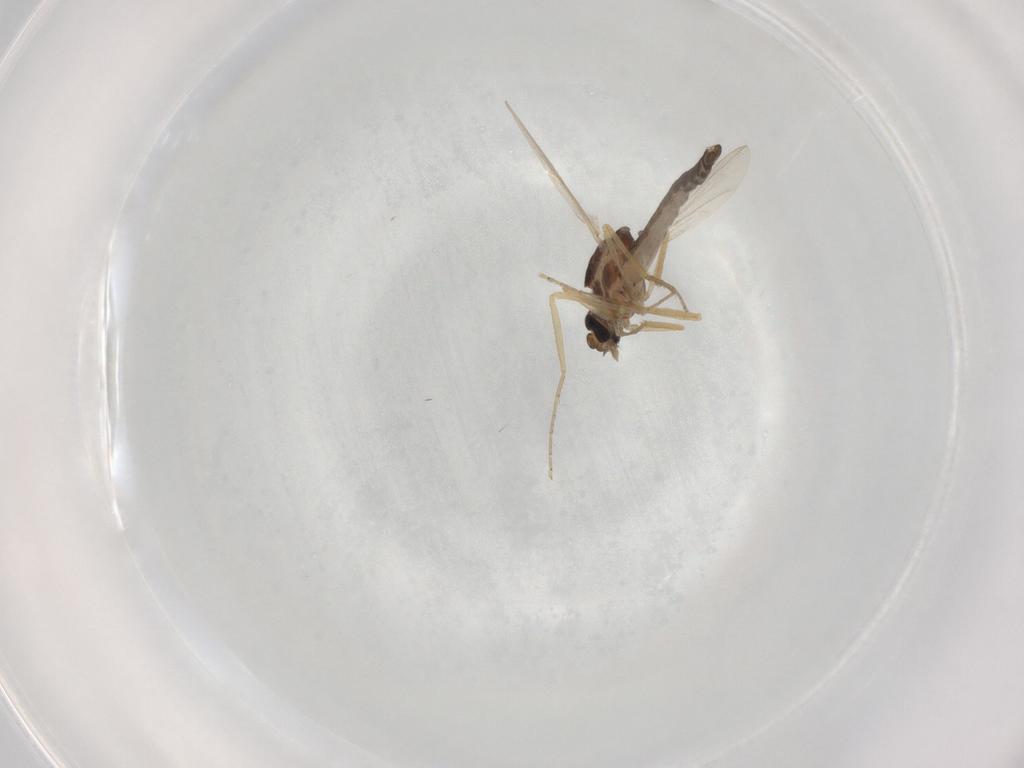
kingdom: Animalia
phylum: Arthropoda
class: Insecta
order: Diptera
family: Ceratopogonidae
